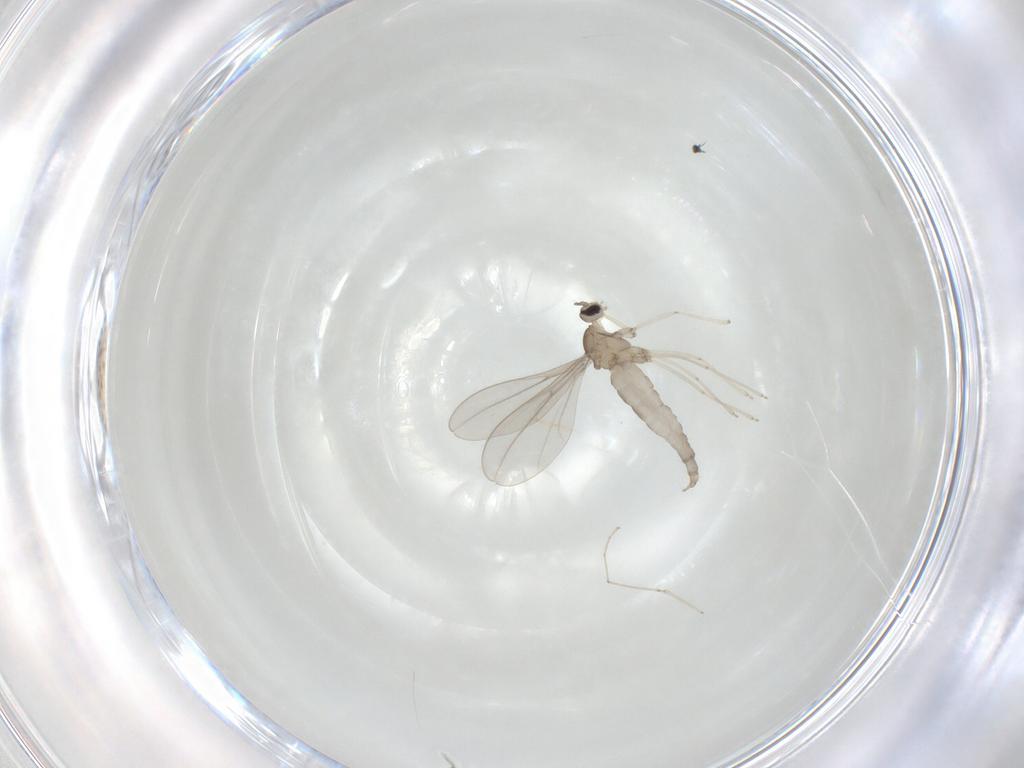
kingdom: Animalia
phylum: Arthropoda
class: Insecta
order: Diptera
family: Cecidomyiidae
